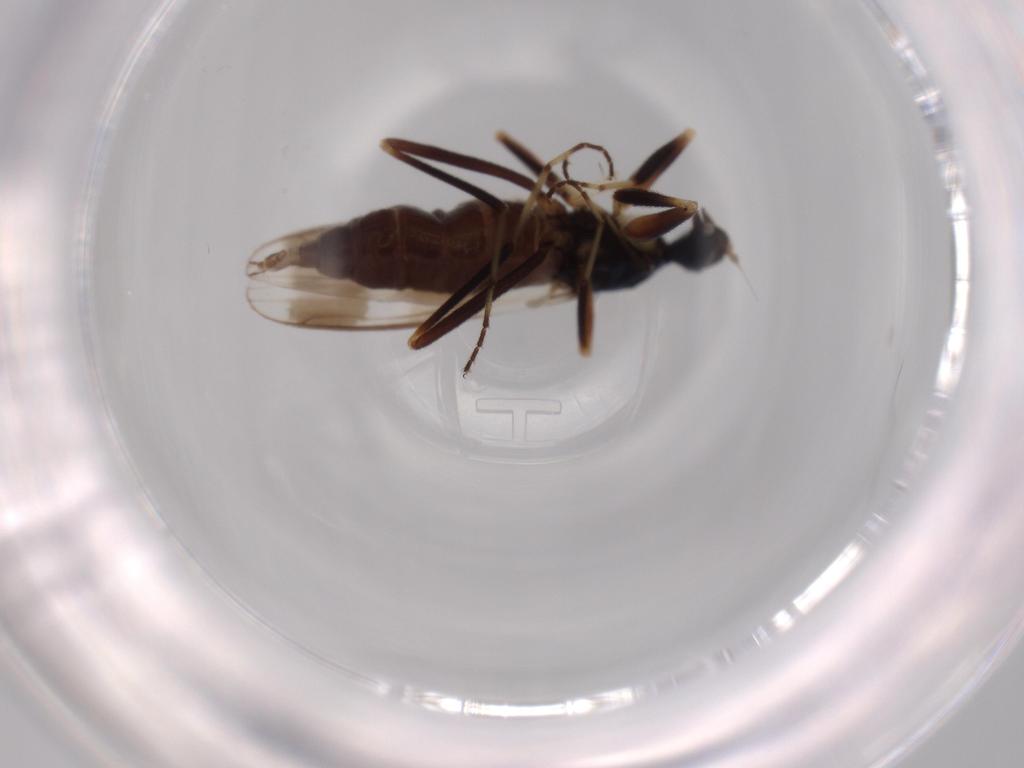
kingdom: Animalia
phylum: Arthropoda
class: Insecta
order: Diptera
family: Hybotidae
